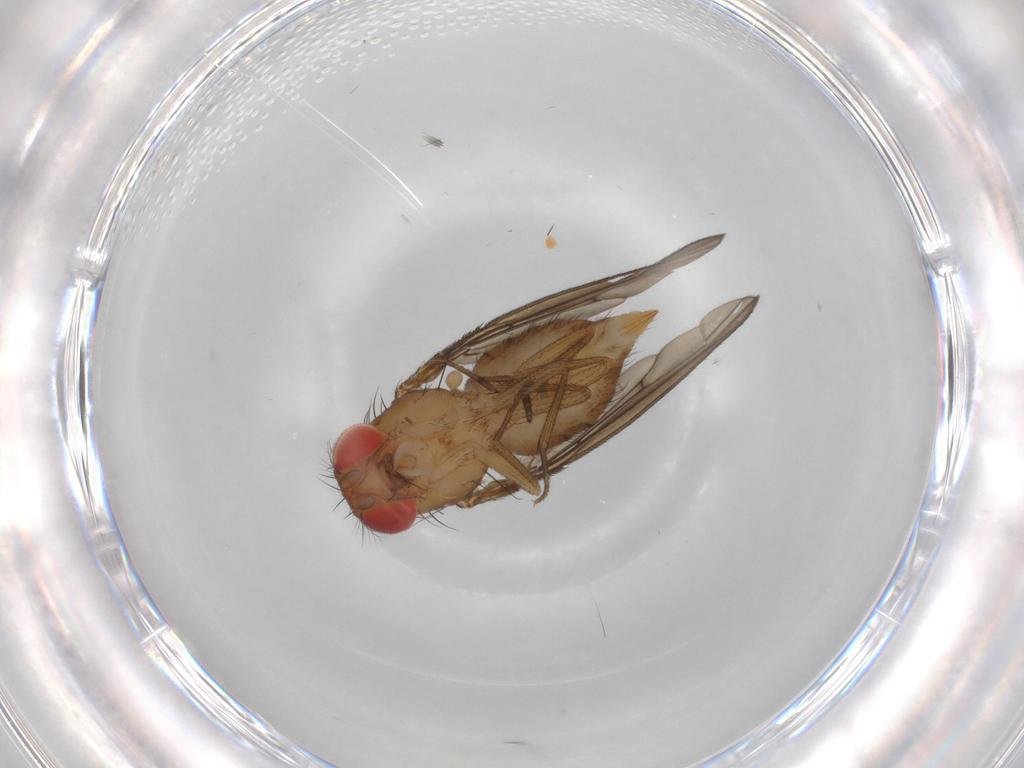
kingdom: Animalia
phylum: Arthropoda
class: Insecta
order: Diptera
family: Drosophilidae
